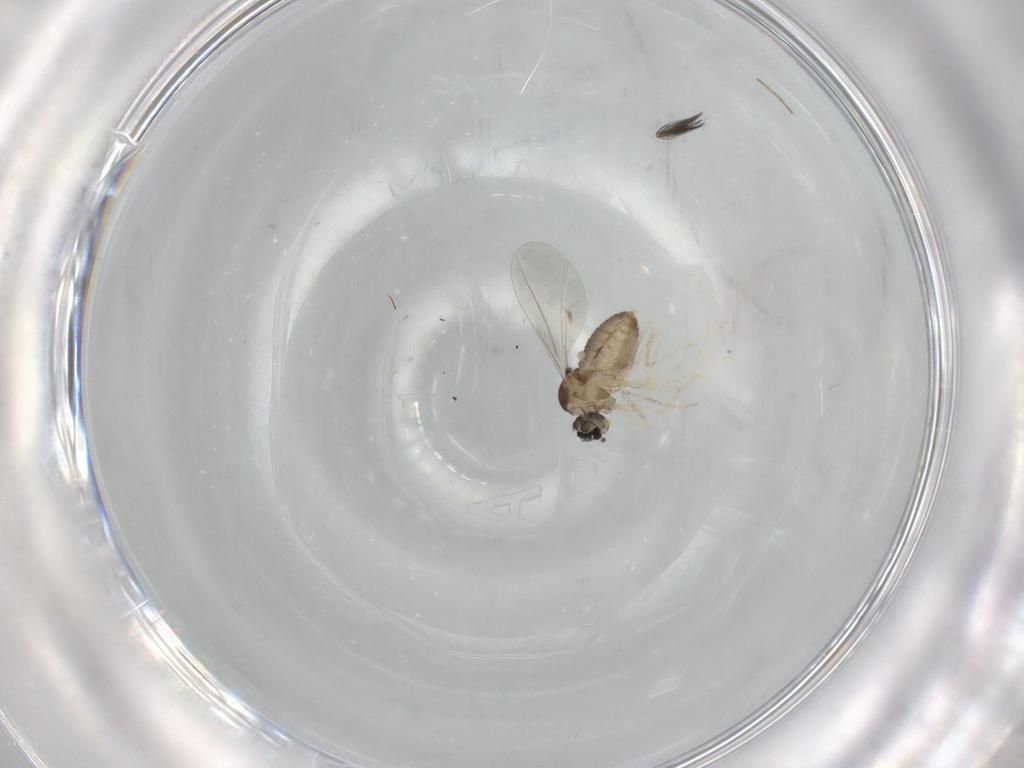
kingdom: Animalia
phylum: Arthropoda
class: Insecta
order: Diptera
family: Cecidomyiidae
